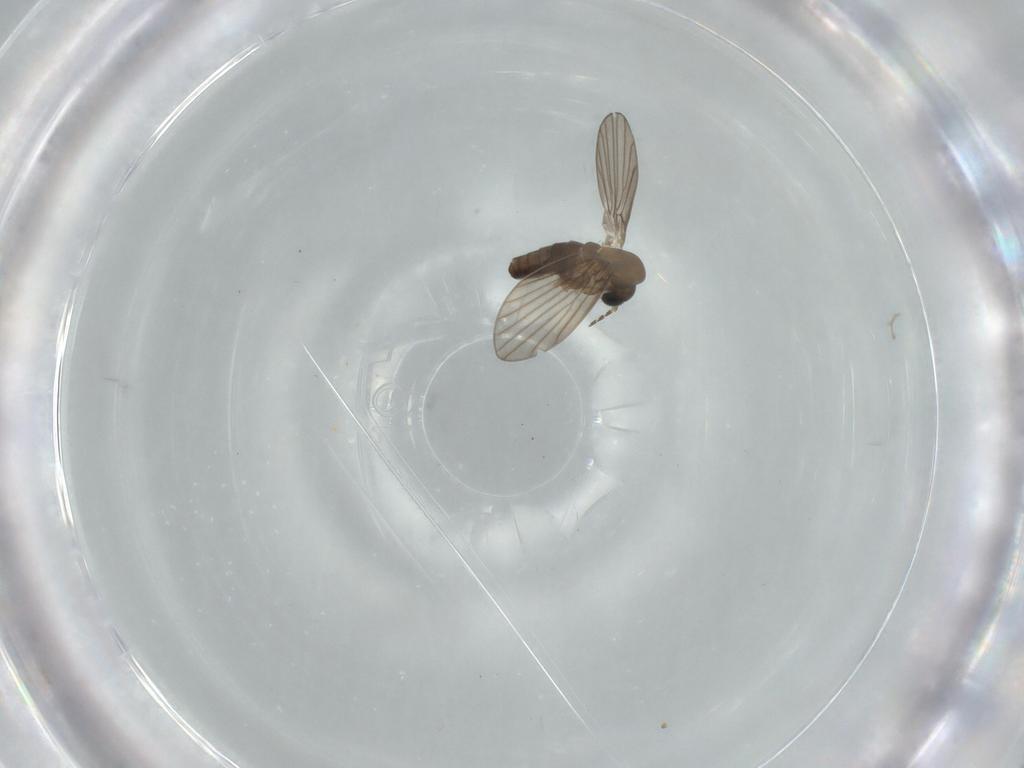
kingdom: Animalia
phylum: Arthropoda
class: Insecta
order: Diptera
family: Psychodidae
